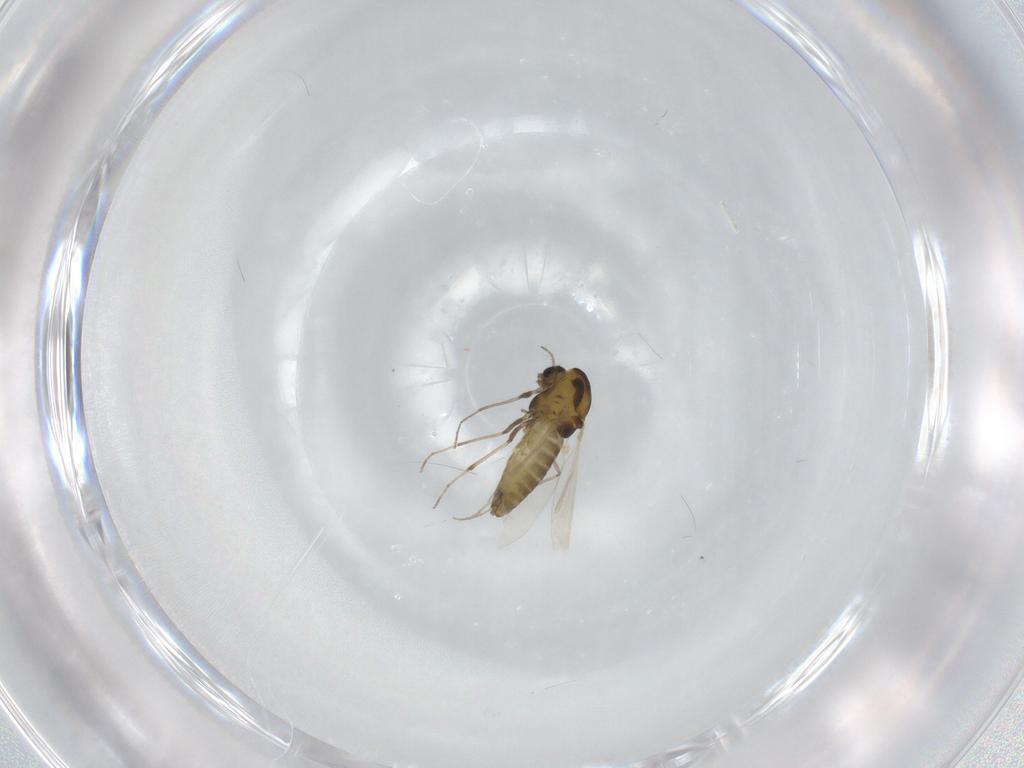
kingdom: Animalia
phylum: Arthropoda
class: Insecta
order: Diptera
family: Chironomidae
